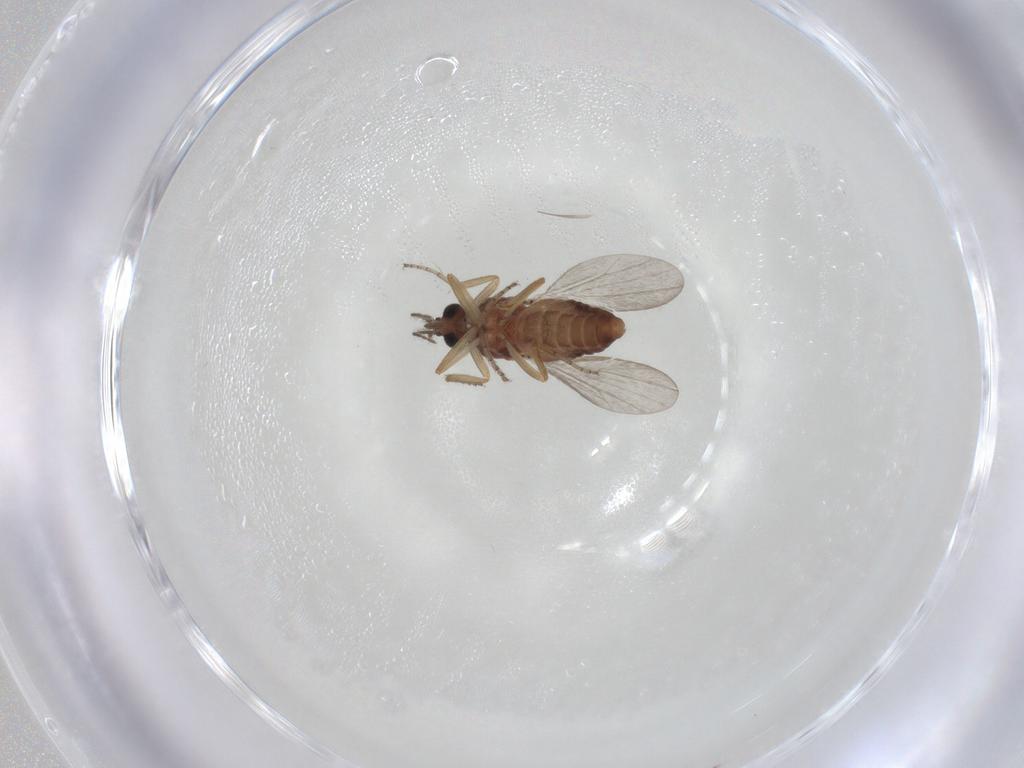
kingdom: Animalia
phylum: Arthropoda
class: Insecta
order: Diptera
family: Ceratopogonidae
